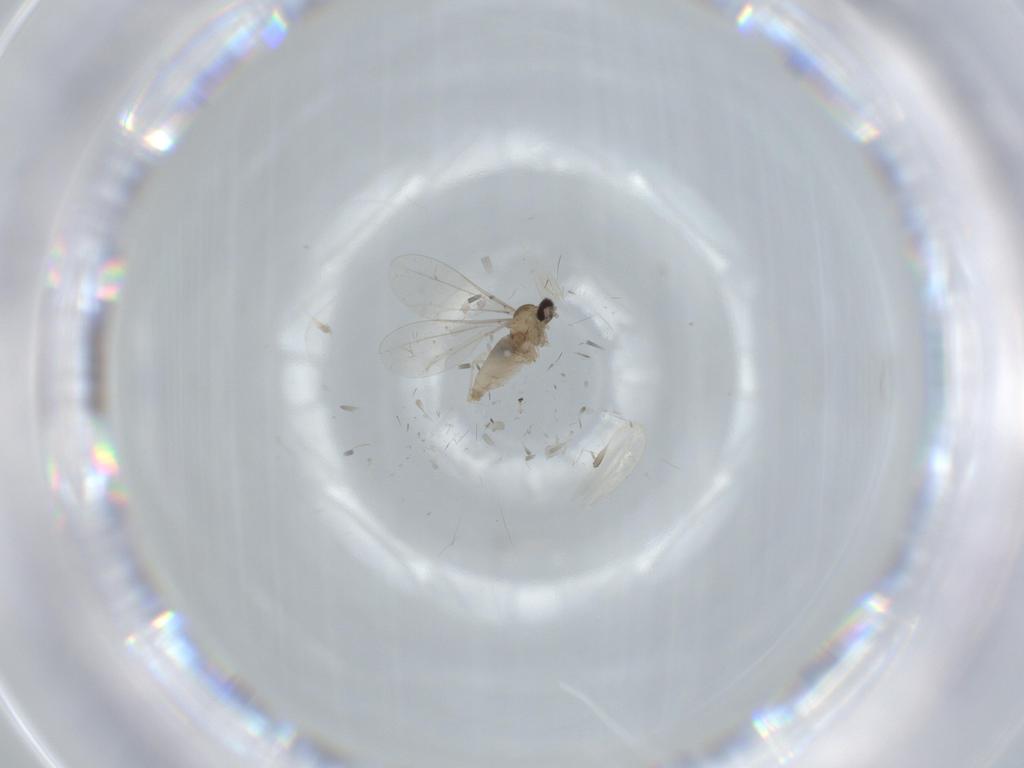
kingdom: Animalia
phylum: Arthropoda
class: Insecta
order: Diptera
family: Cecidomyiidae
